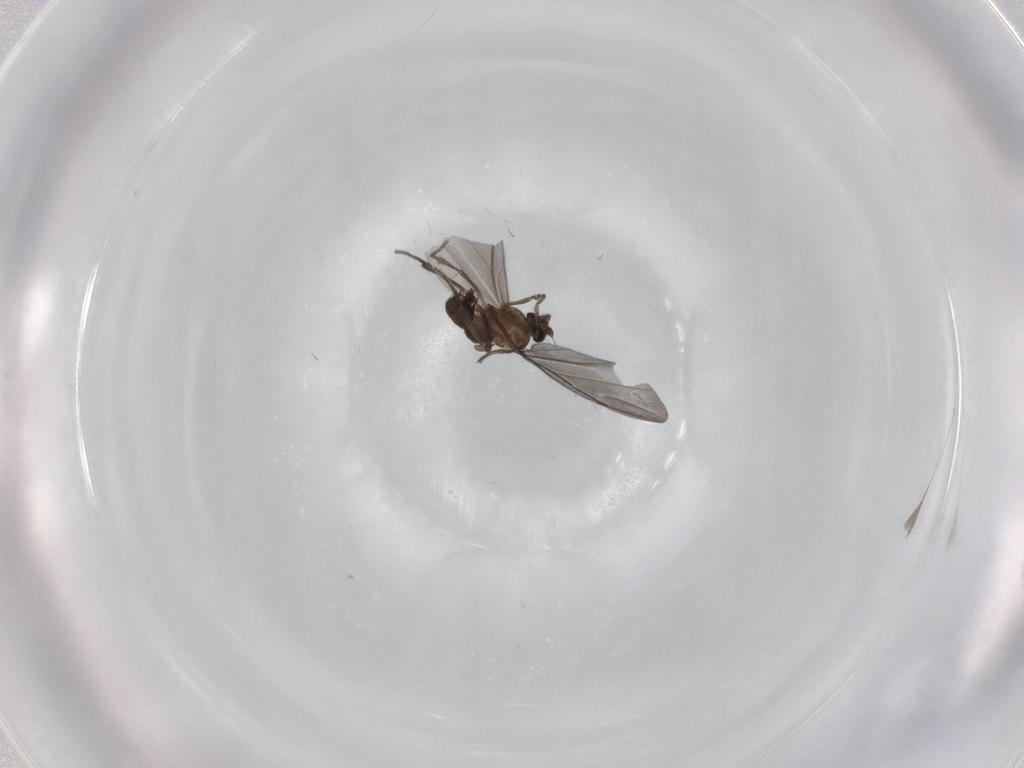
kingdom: Animalia
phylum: Arthropoda
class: Insecta
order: Diptera
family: Phoridae
